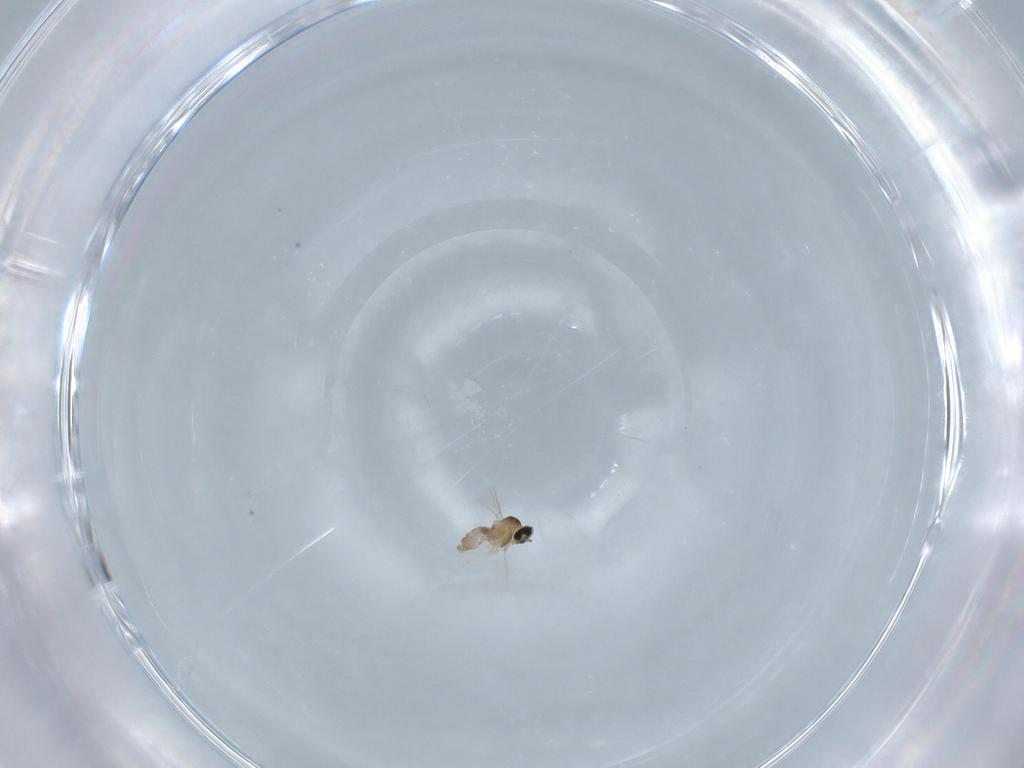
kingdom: Animalia
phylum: Arthropoda
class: Insecta
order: Diptera
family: Cecidomyiidae
